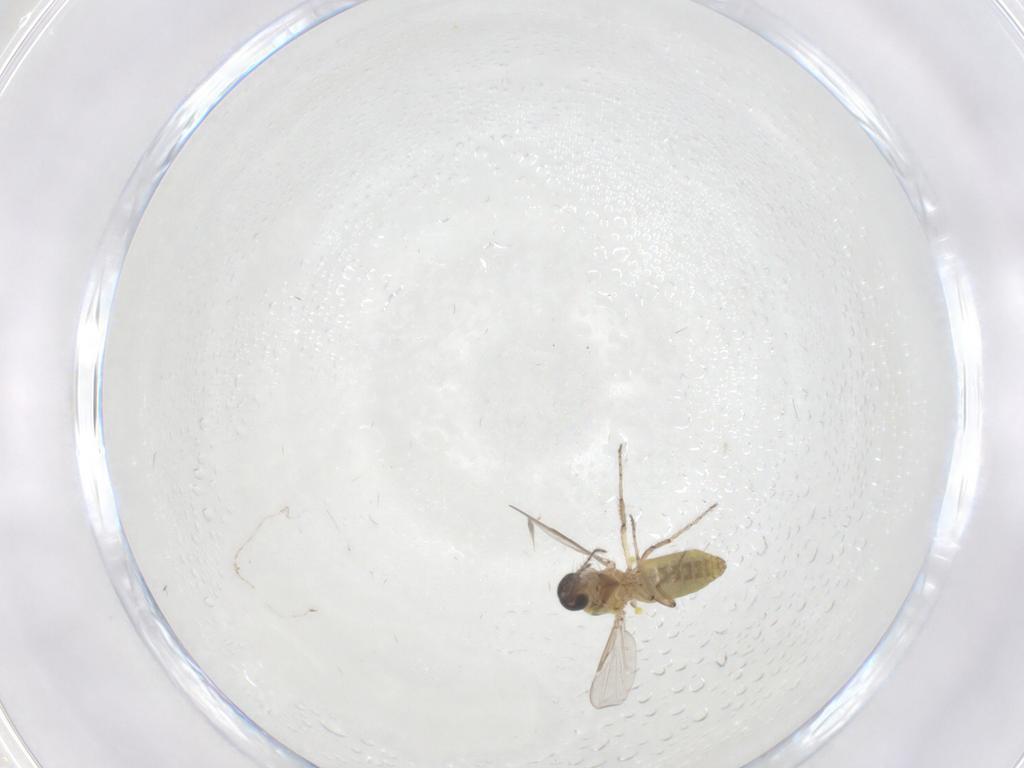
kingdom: Animalia
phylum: Arthropoda
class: Insecta
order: Diptera
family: Ceratopogonidae
